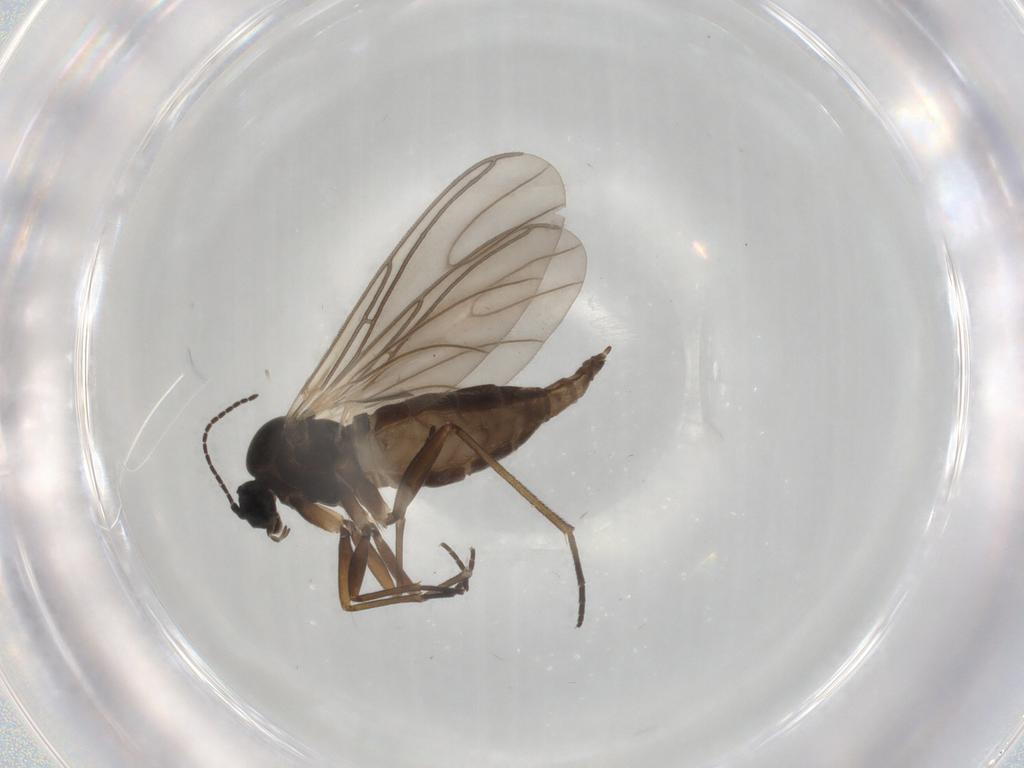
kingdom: Animalia
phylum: Arthropoda
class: Insecta
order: Diptera
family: Sciaridae
